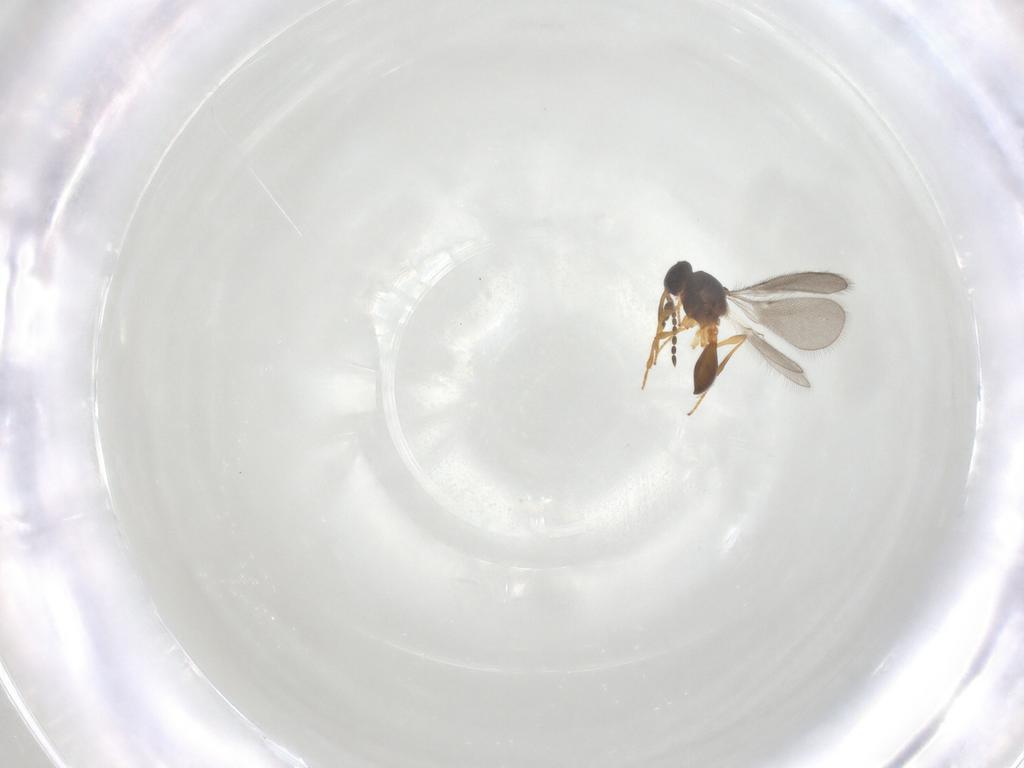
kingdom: Animalia
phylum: Arthropoda
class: Insecta
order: Hymenoptera
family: Platygastridae
